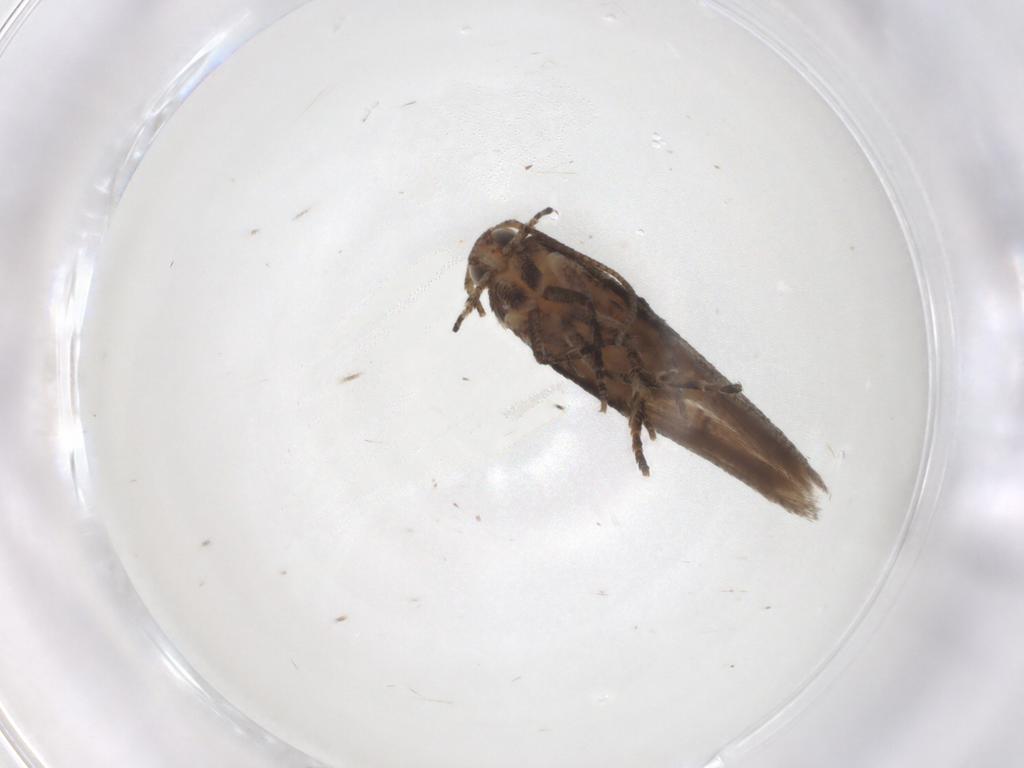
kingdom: Animalia
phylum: Arthropoda
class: Insecta
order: Lepidoptera
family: Gelechiidae
